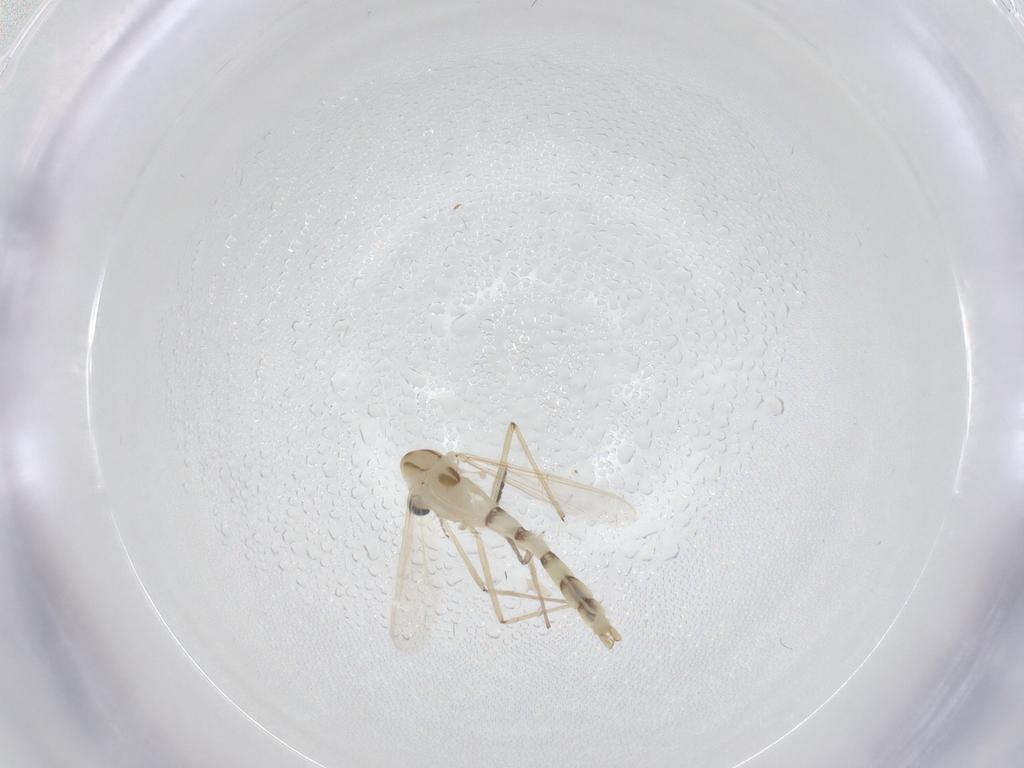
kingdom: Animalia
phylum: Arthropoda
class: Insecta
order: Diptera
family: Chironomidae
